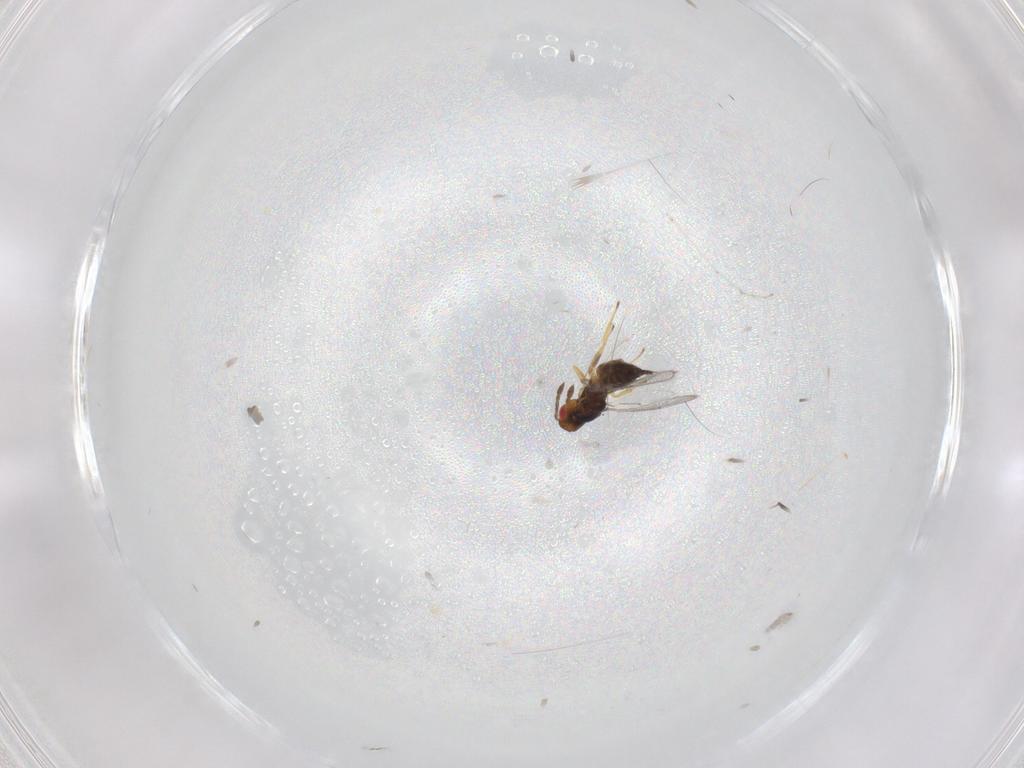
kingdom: Animalia
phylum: Arthropoda
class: Insecta
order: Hymenoptera
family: Eulophidae
